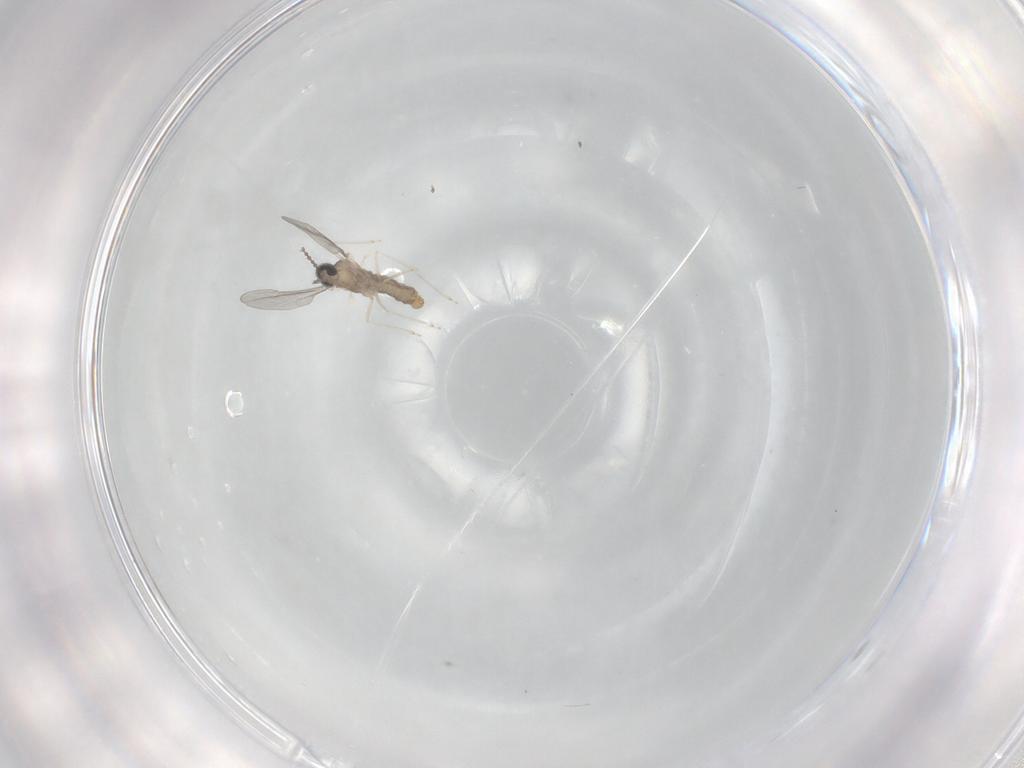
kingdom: Animalia
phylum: Arthropoda
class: Insecta
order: Diptera
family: Cecidomyiidae
